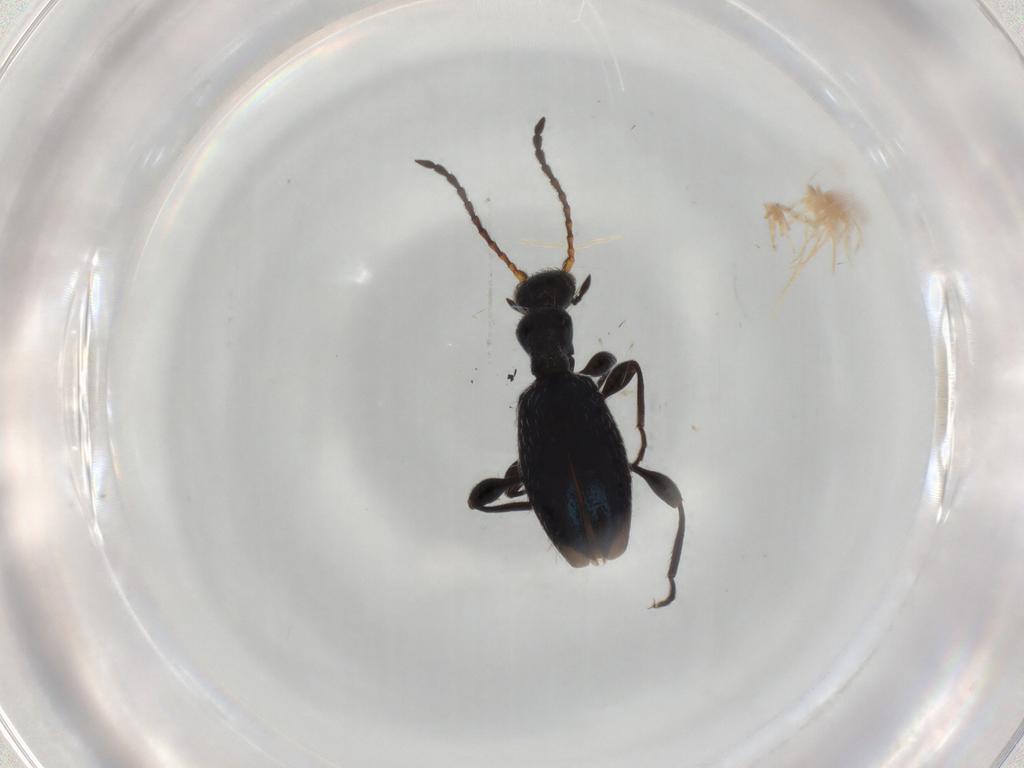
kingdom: Animalia
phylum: Arthropoda
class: Insecta
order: Coleoptera
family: Anthicidae
